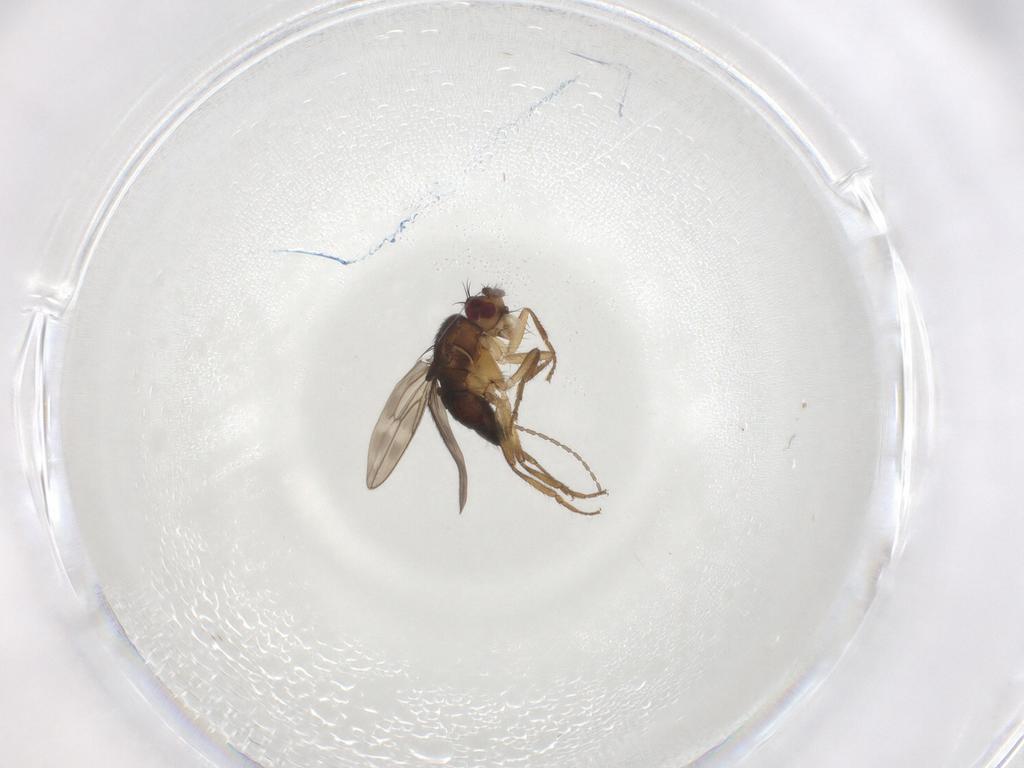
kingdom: Animalia
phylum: Arthropoda
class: Insecta
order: Diptera
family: Sphaeroceridae
